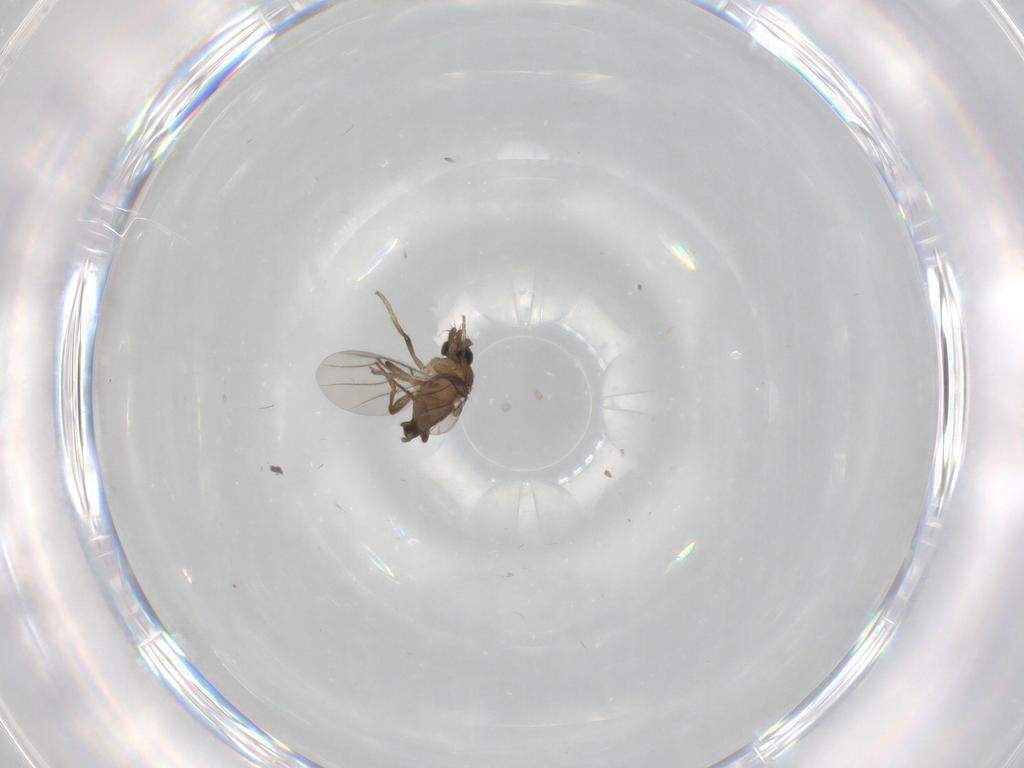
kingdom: Animalia
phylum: Arthropoda
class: Insecta
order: Diptera
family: Phoridae
